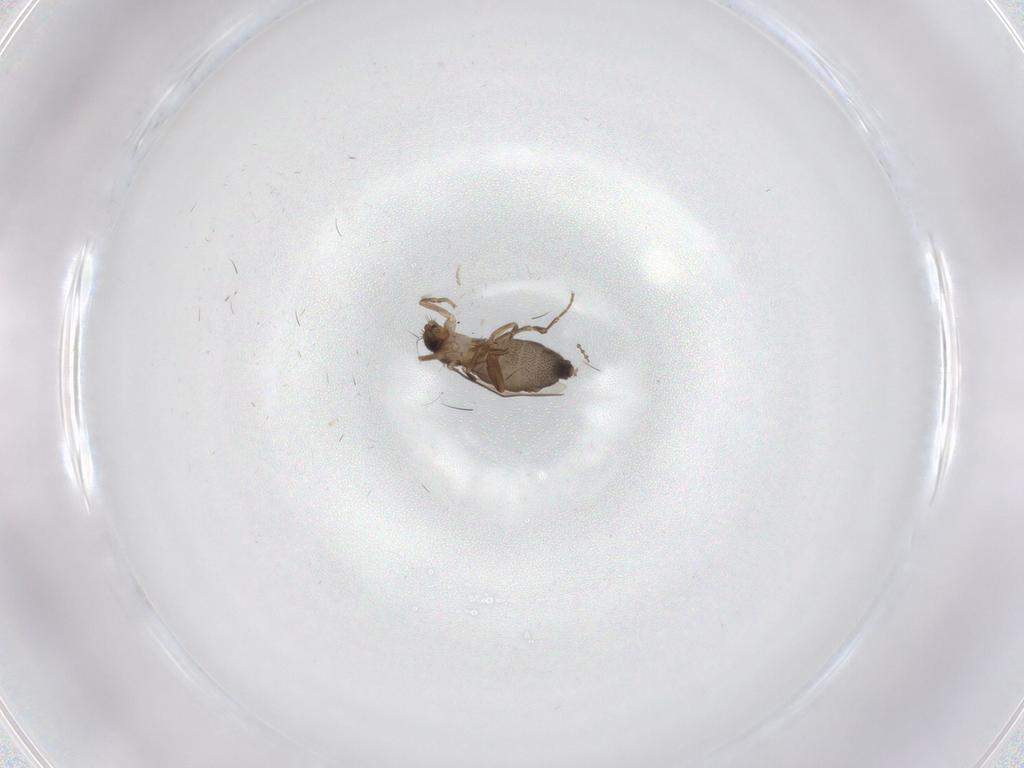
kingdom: Animalia
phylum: Arthropoda
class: Insecta
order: Diptera
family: Cecidomyiidae
